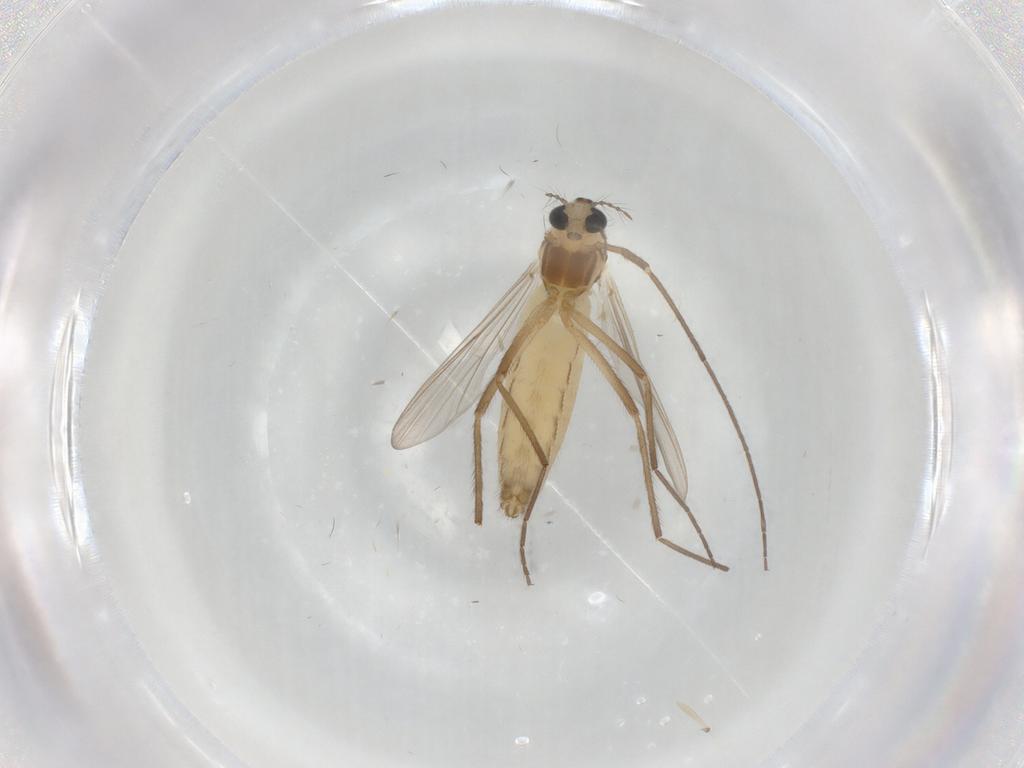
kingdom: Animalia
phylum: Arthropoda
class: Insecta
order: Diptera
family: Chironomidae
